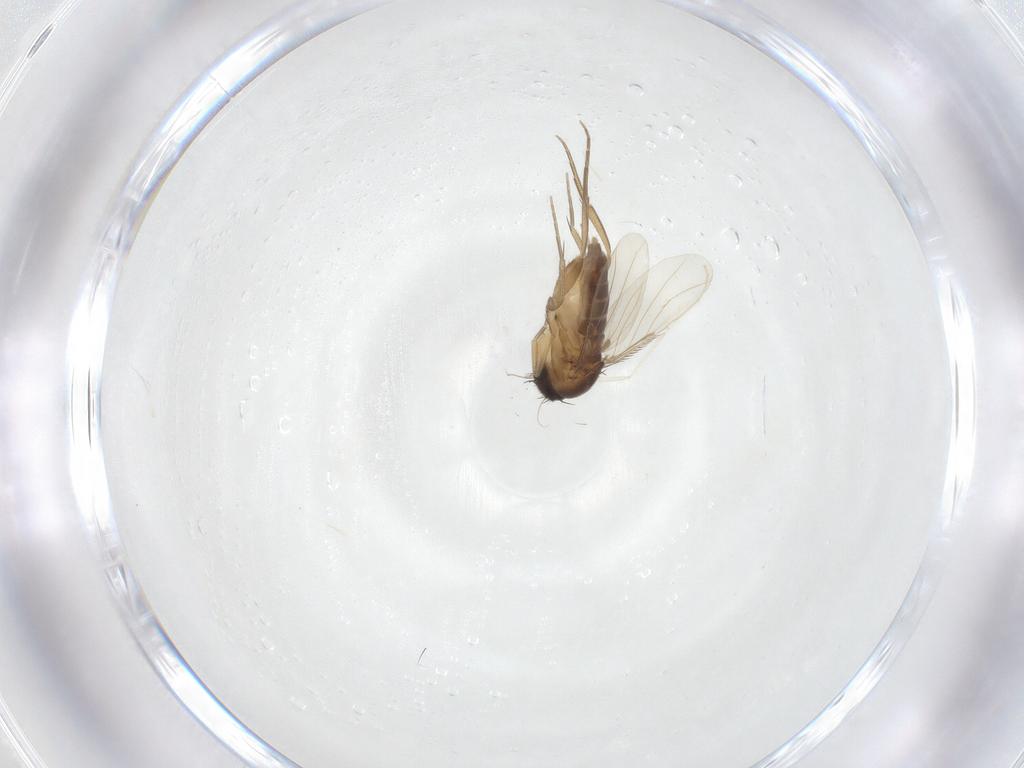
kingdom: Animalia
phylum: Arthropoda
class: Insecta
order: Diptera
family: Phoridae
